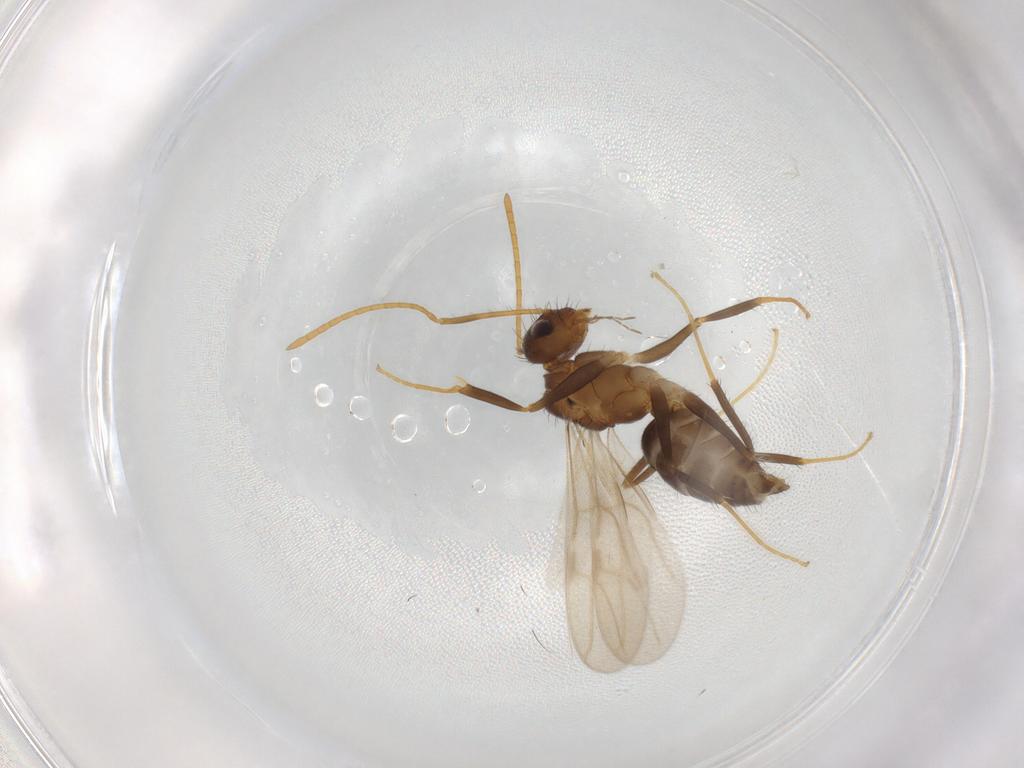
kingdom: Animalia
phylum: Arthropoda
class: Insecta
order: Hymenoptera
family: Formicidae
